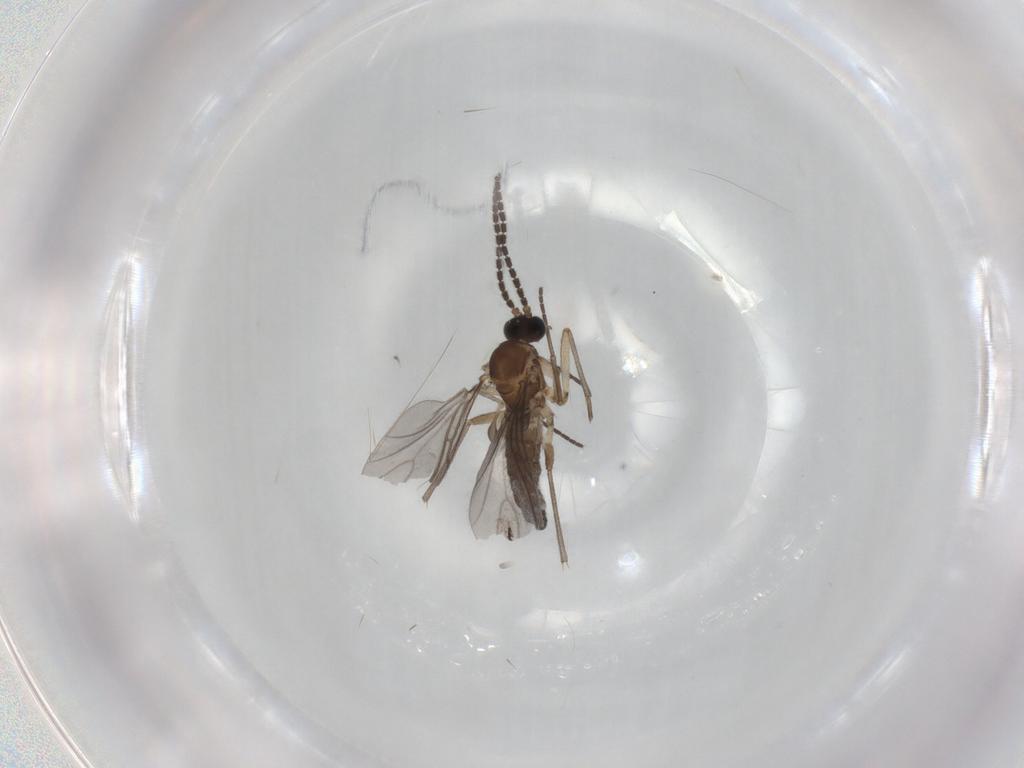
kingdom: Animalia
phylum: Arthropoda
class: Insecta
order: Diptera
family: Sciaridae
